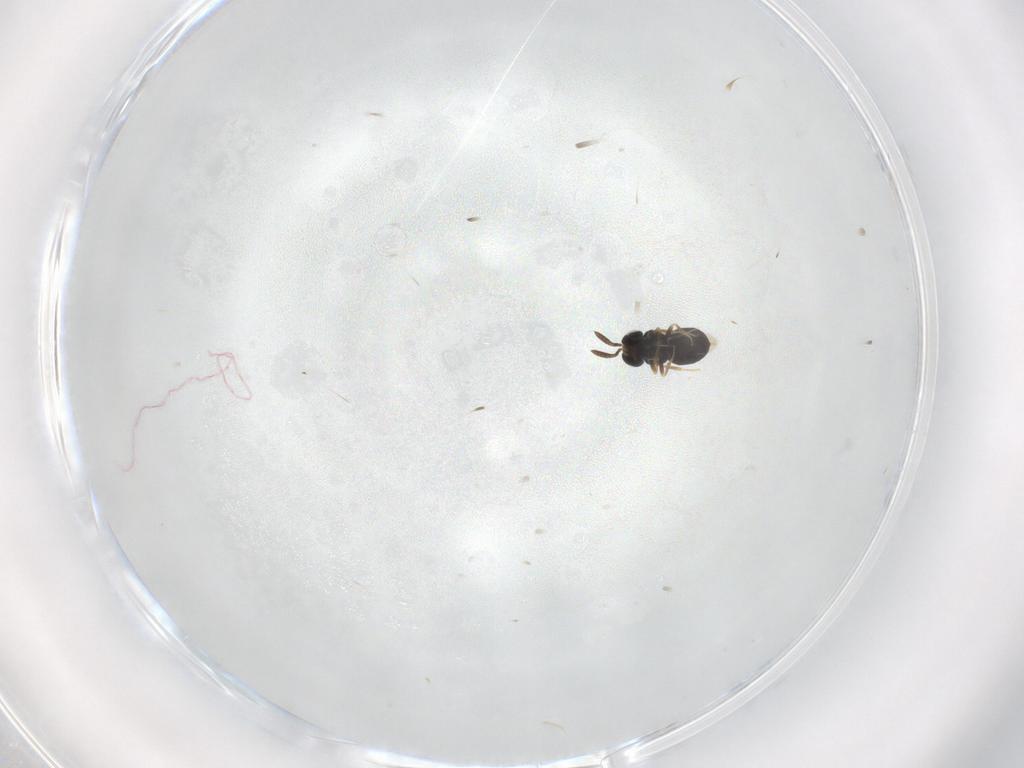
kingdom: Animalia
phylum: Arthropoda
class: Insecta
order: Hymenoptera
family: Scelionidae
